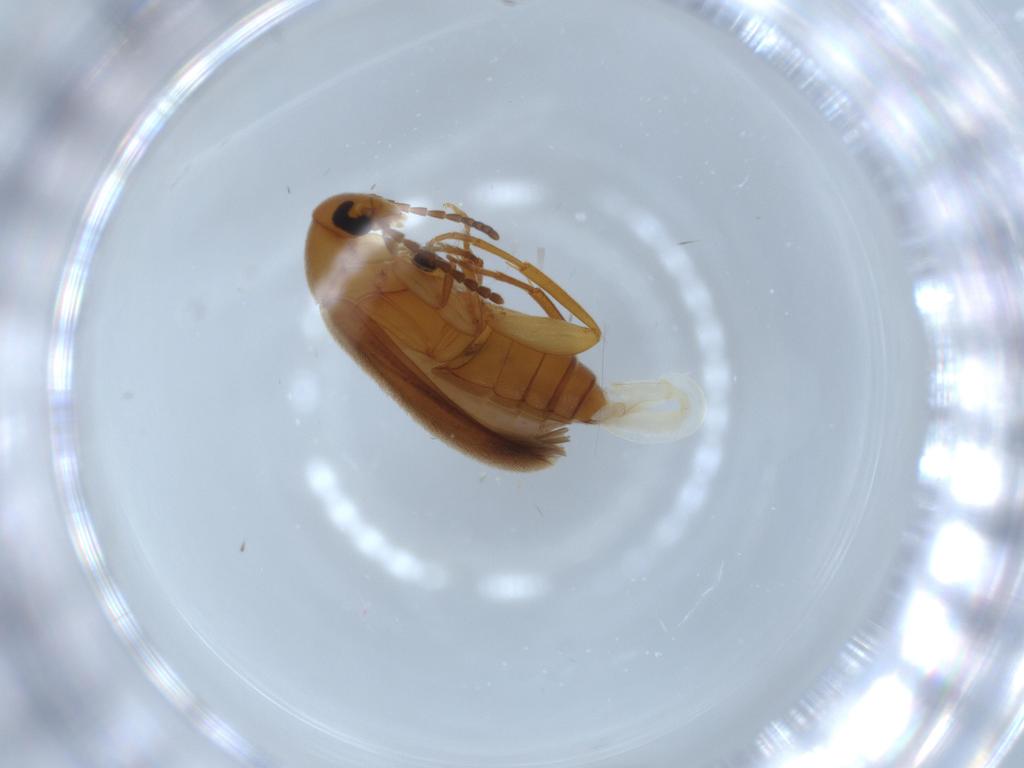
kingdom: Animalia
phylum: Arthropoda
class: Insecta
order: Coleoptera
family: Scraptiidae
